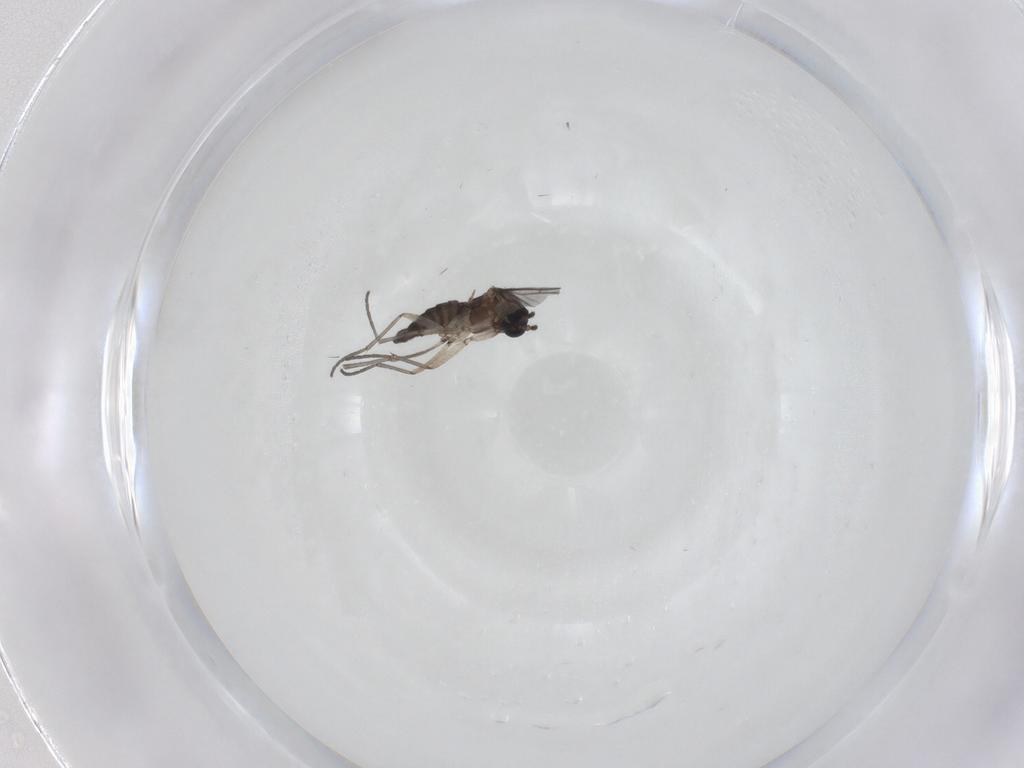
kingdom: Animalia
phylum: Arthropoda
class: Insecta
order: Diptera
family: Sciaridae
